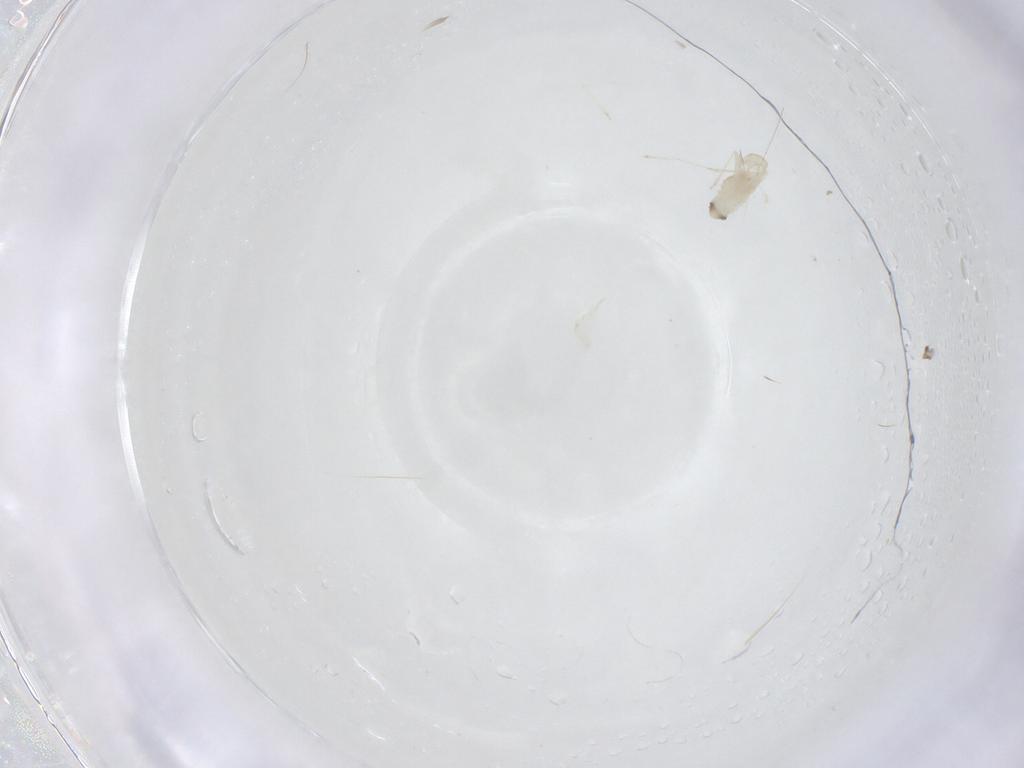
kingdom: Animalia
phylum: Arthropoda
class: Insecta
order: Diptera
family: Cecidomyiidae
